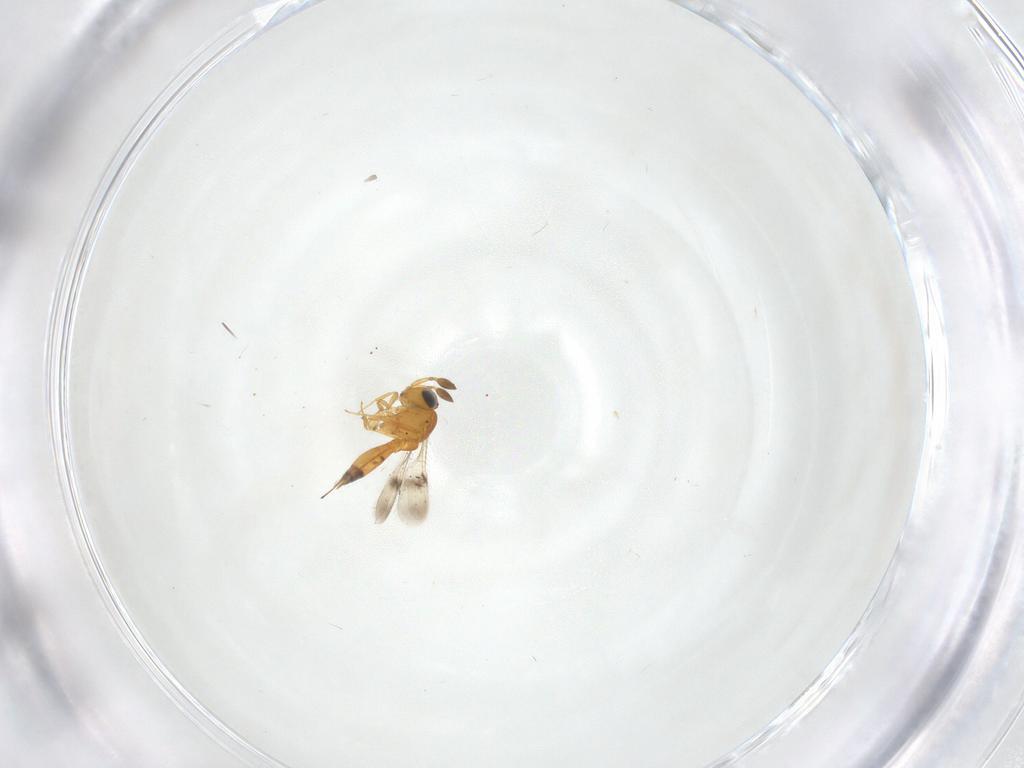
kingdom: Animalia
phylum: Arthropoda
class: Insecta
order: Hymenoptera
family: Scelionidae
